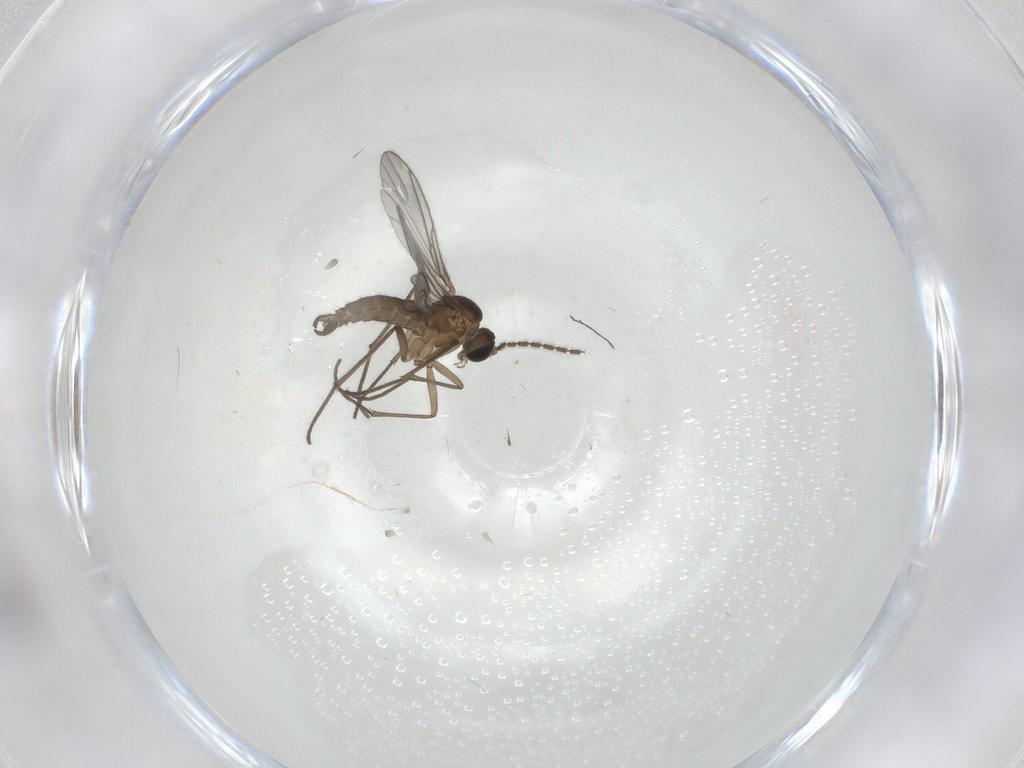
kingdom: Animalia
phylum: Arthropoda
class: Insecta
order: Diptera
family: Sciaridae
